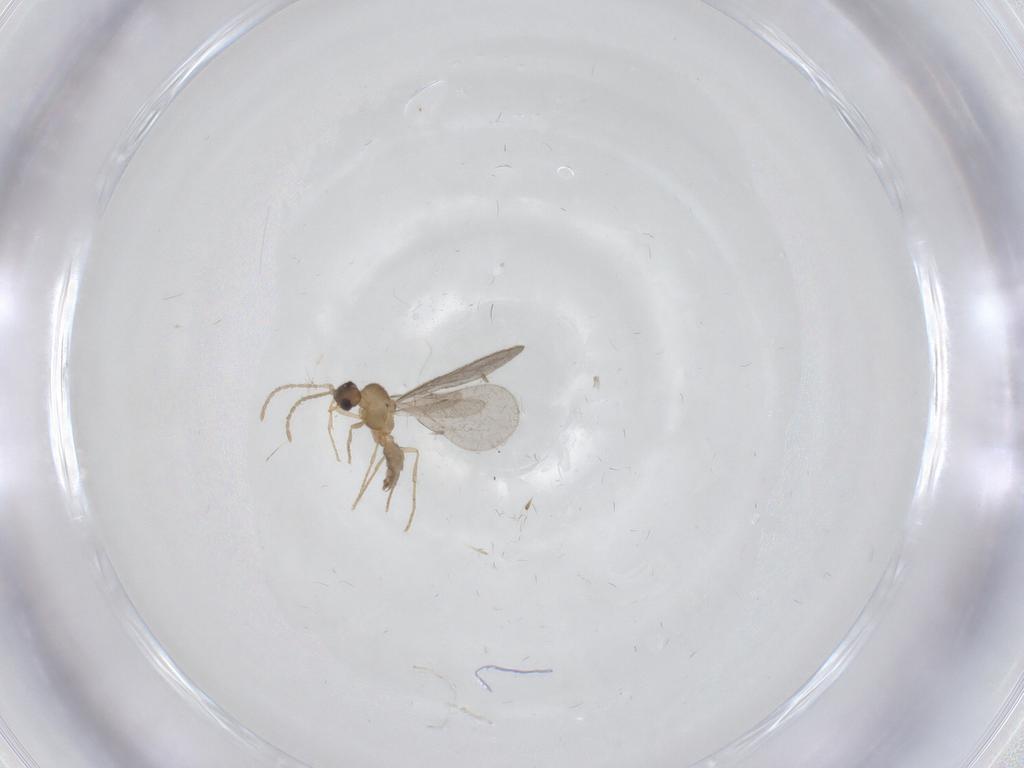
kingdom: Animalia
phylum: Arthropoda
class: Insecta
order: Hymenoptera
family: Formicidae
